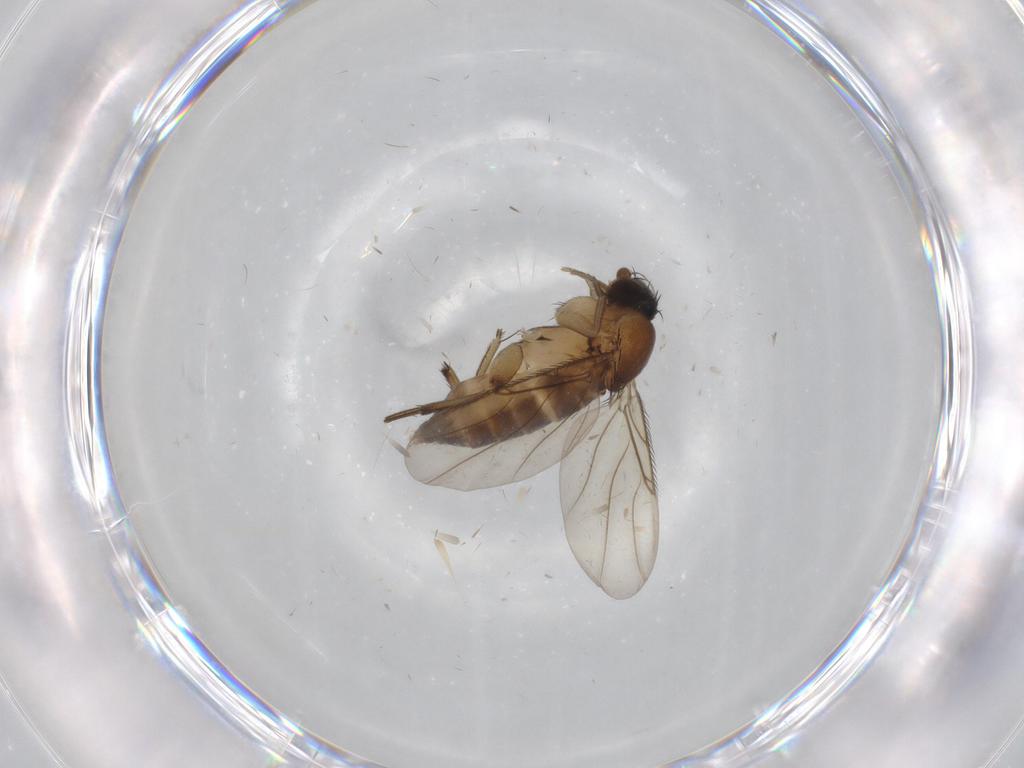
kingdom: Animalia
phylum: Arthropoda
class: Insecta
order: Diptera
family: Phoridae
